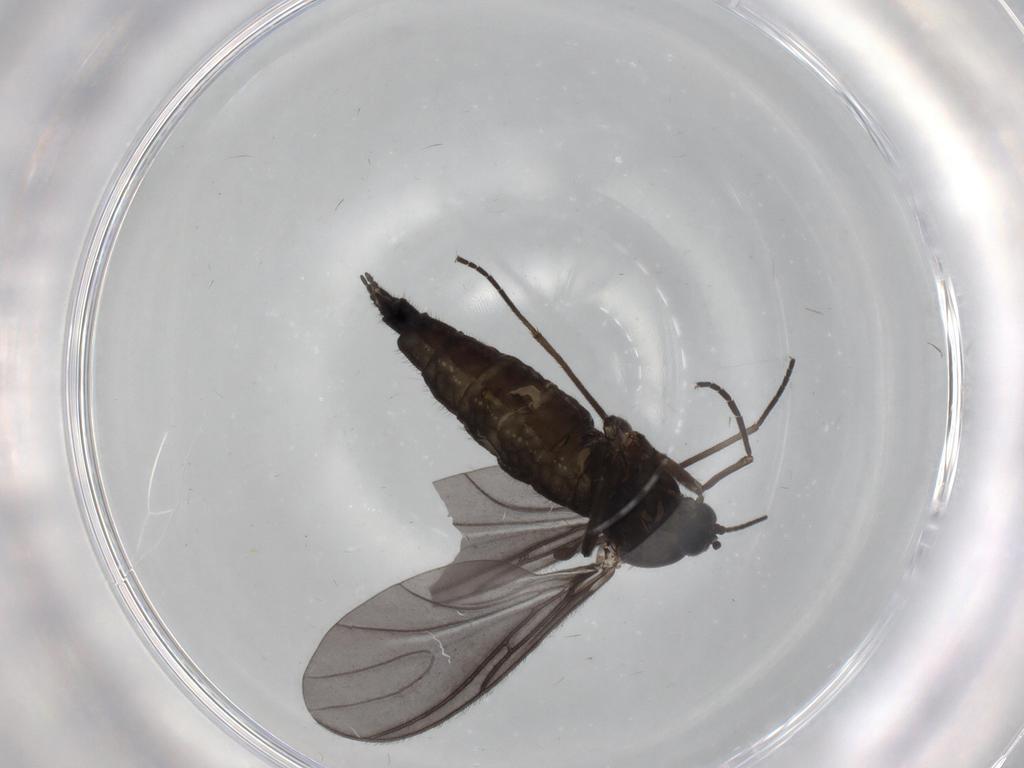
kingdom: Animalia
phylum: Arthropoda
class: Insecta
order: Diptera
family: Sciaridae
